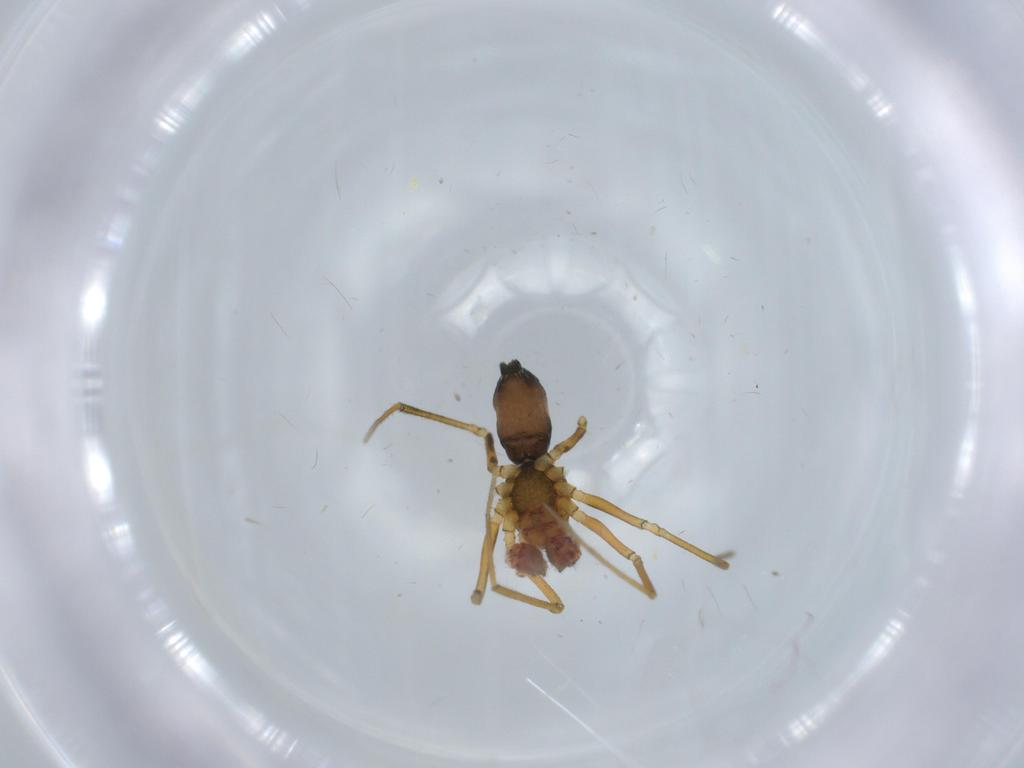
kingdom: Animalia
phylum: Arthropoda
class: Arachnida
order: Araneae
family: Linyphiidae
